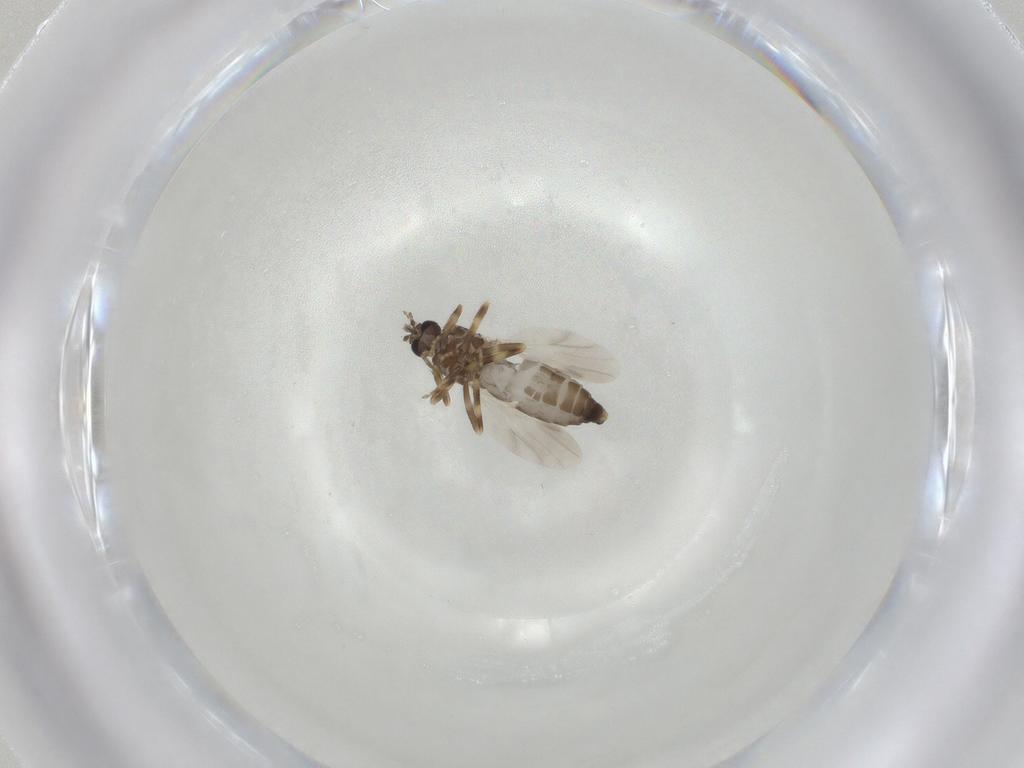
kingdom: Animalia
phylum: Arthropoda
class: Insecta
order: Diptera
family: Ceratopogonidae
